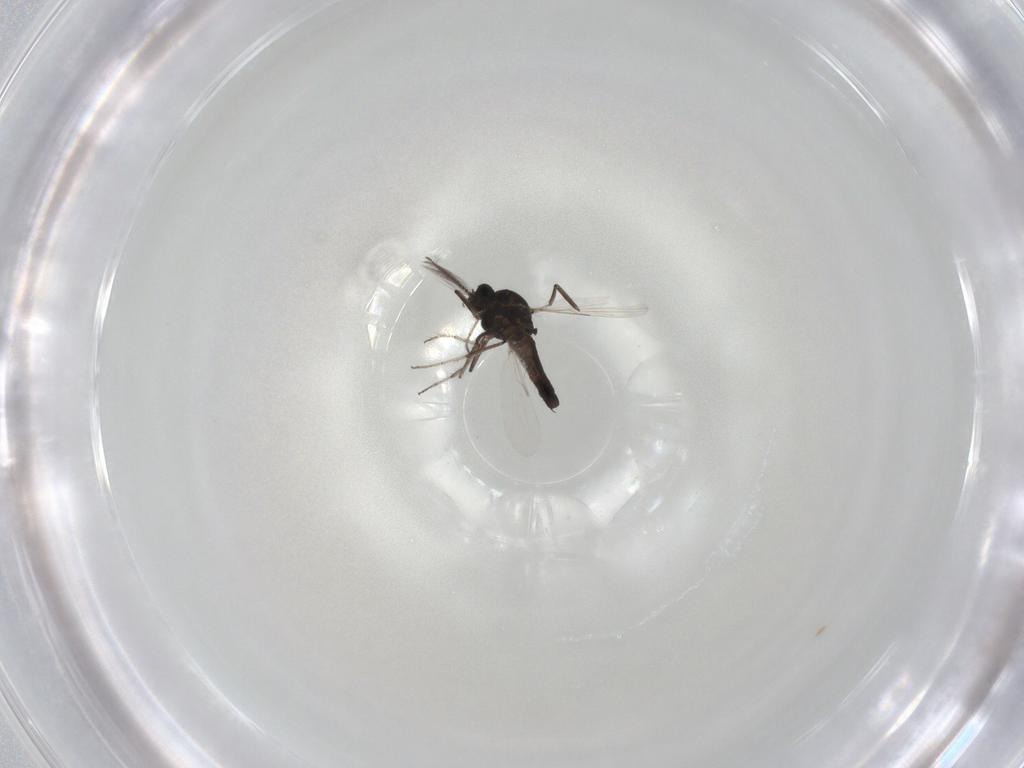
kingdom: Animalia
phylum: Arthropoda
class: Insecta
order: Diptera
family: Ceratopogonidae
